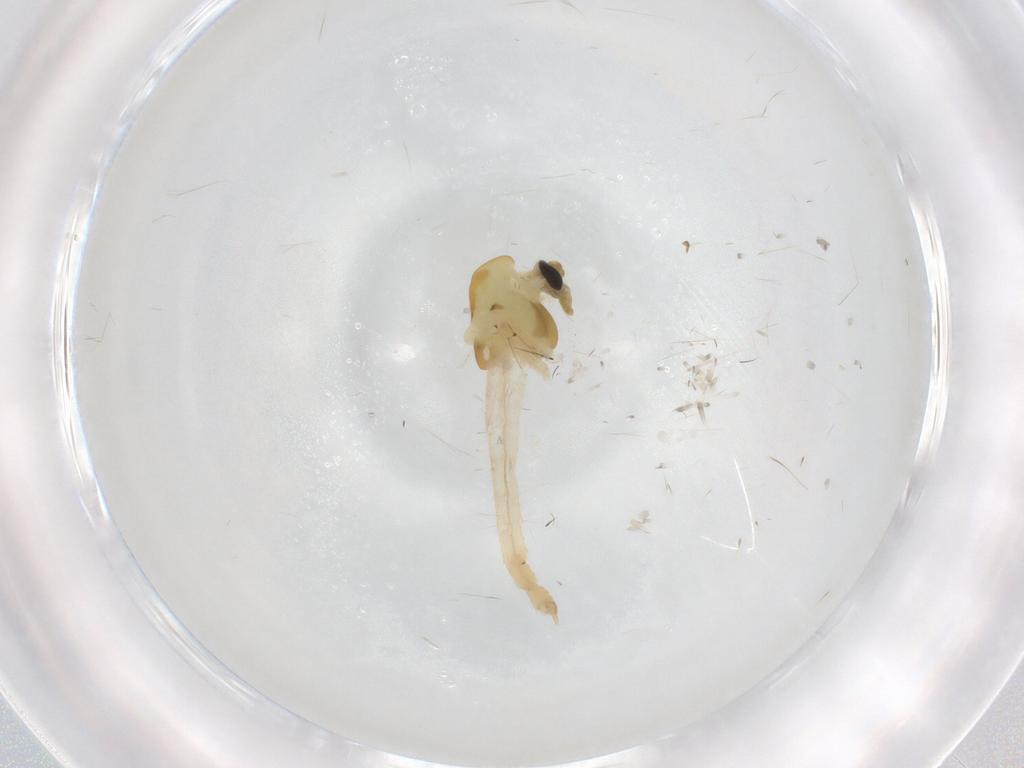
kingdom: Animalia
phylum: Arthropoda
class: Insecta
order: Diptera
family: Chironomidae
